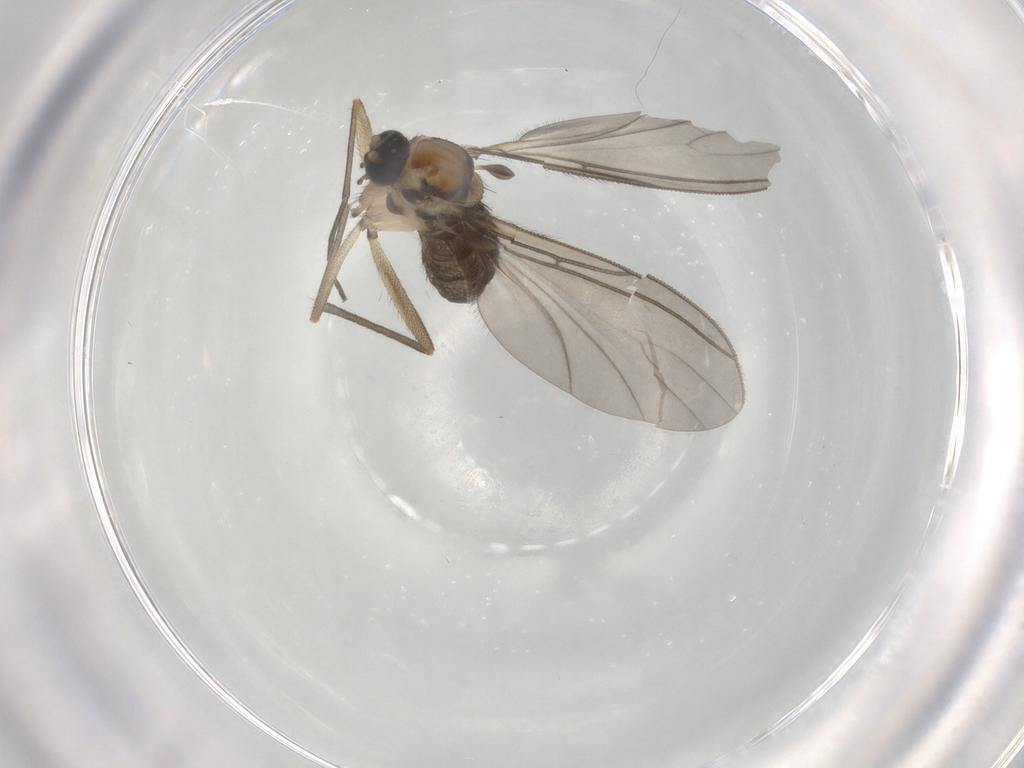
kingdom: Animalia
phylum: Arthropoda
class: Insecta
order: Diptera
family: Sciaridae
